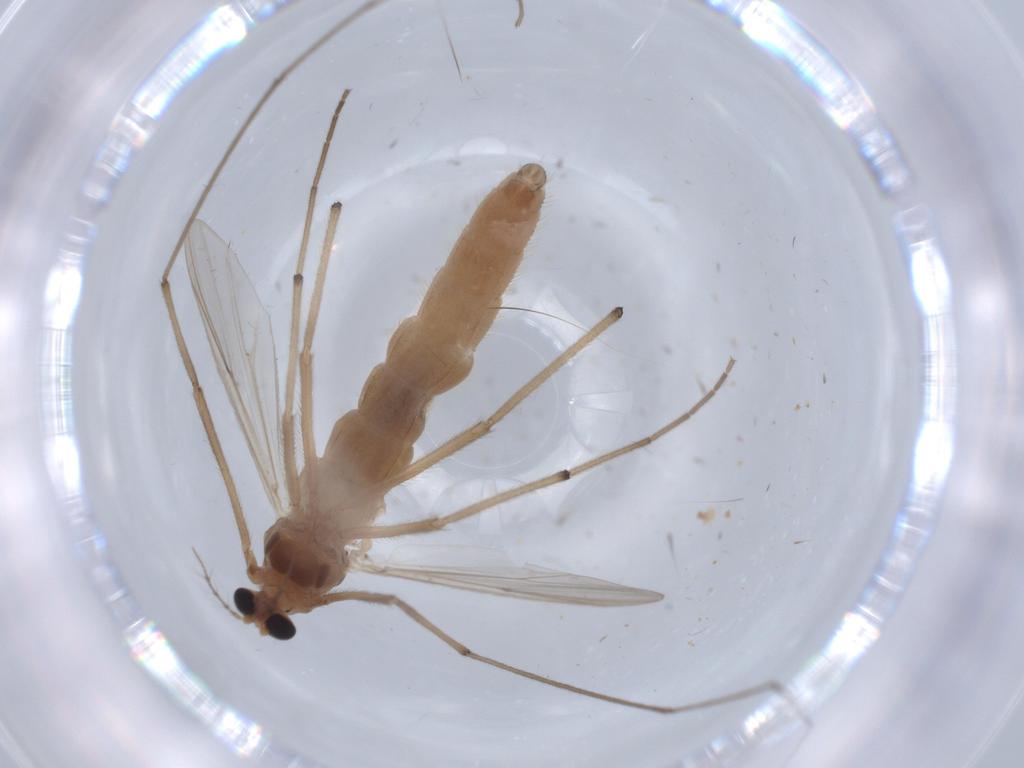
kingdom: Animalia
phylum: Arthropoda
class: Insecta
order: Diptera
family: Chironomidae
